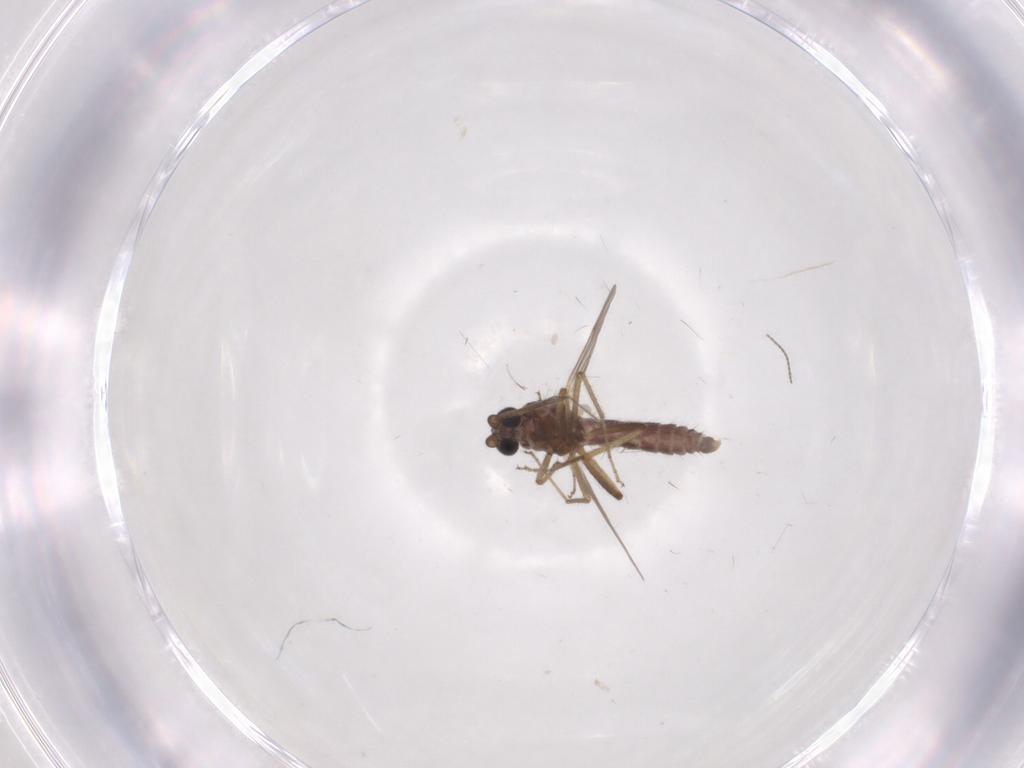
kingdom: Animalia
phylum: Arthropoda
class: Insecta
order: Diptera
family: Ceratopogonidae
